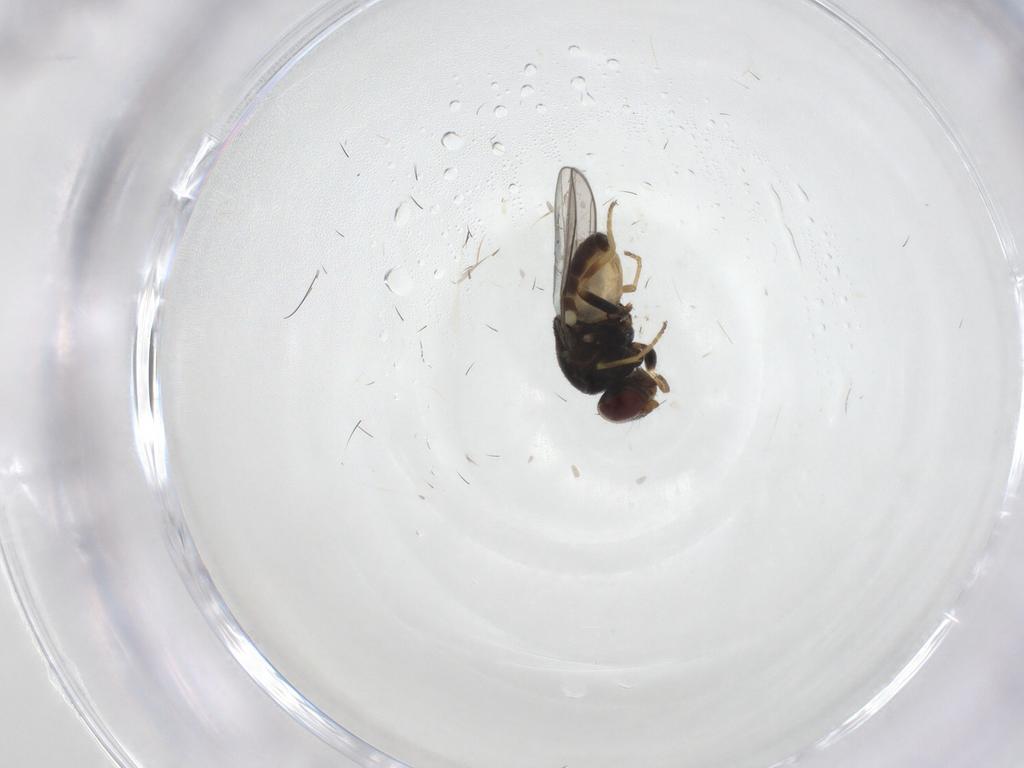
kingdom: Animalia
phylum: Arthropoda
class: Insecta
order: Diptera
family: Chloropidae
